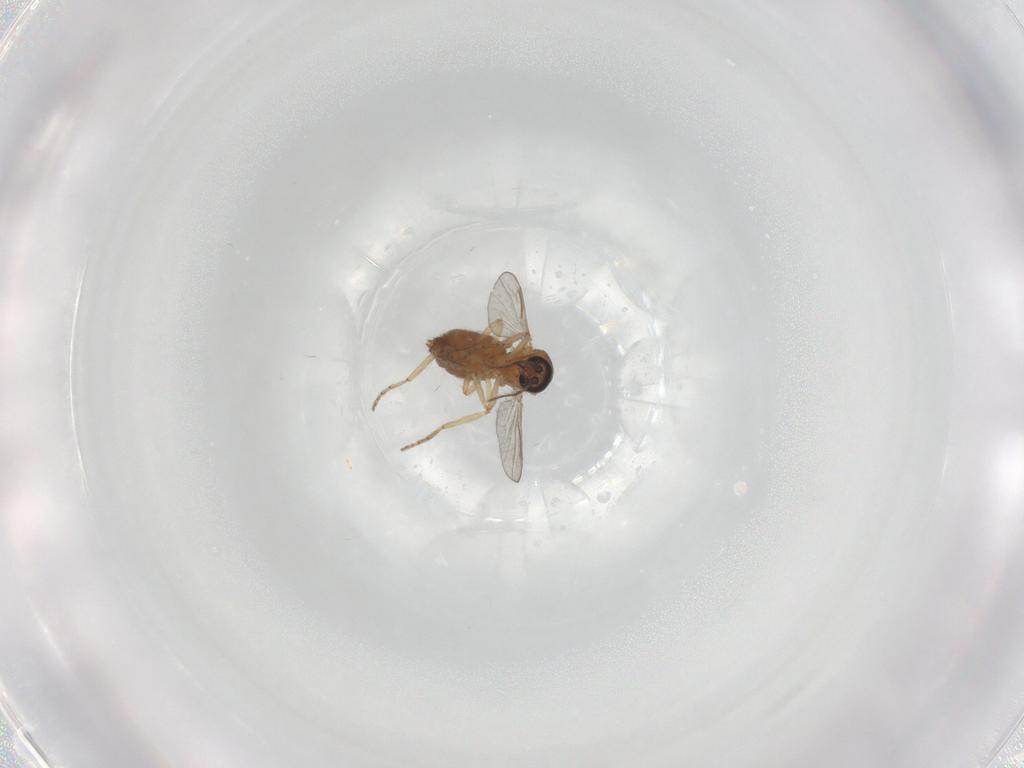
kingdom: Animalia
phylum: Arthropoda
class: Insecta
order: Diptera
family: Ceratopogonidae
